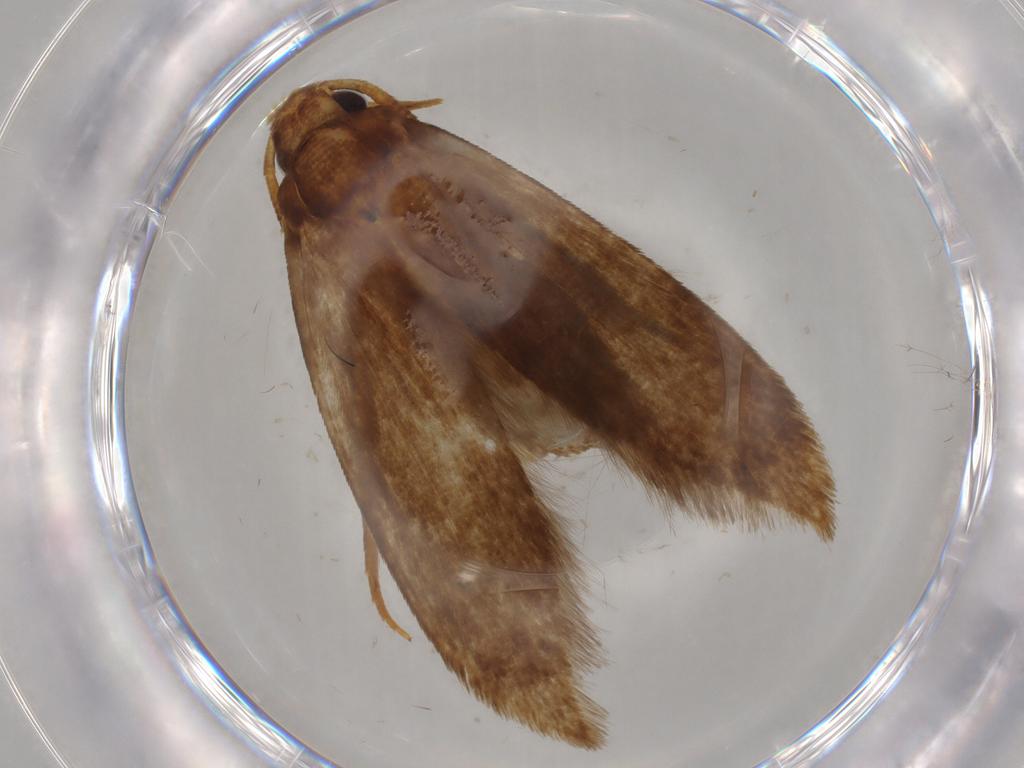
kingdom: Animalia
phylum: Arthropoda
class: Insecta
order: Lepidoptera
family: Tineidae
